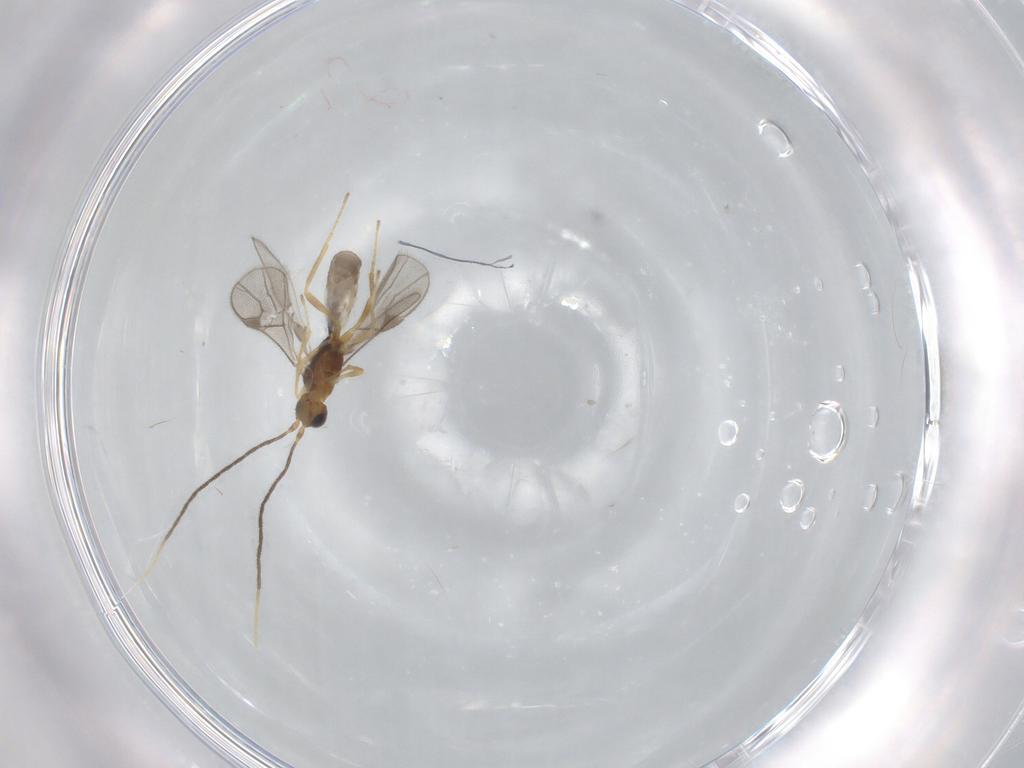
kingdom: Animalia
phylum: Arthropoda
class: Insecta
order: Hymenoptera
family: Braconidae
